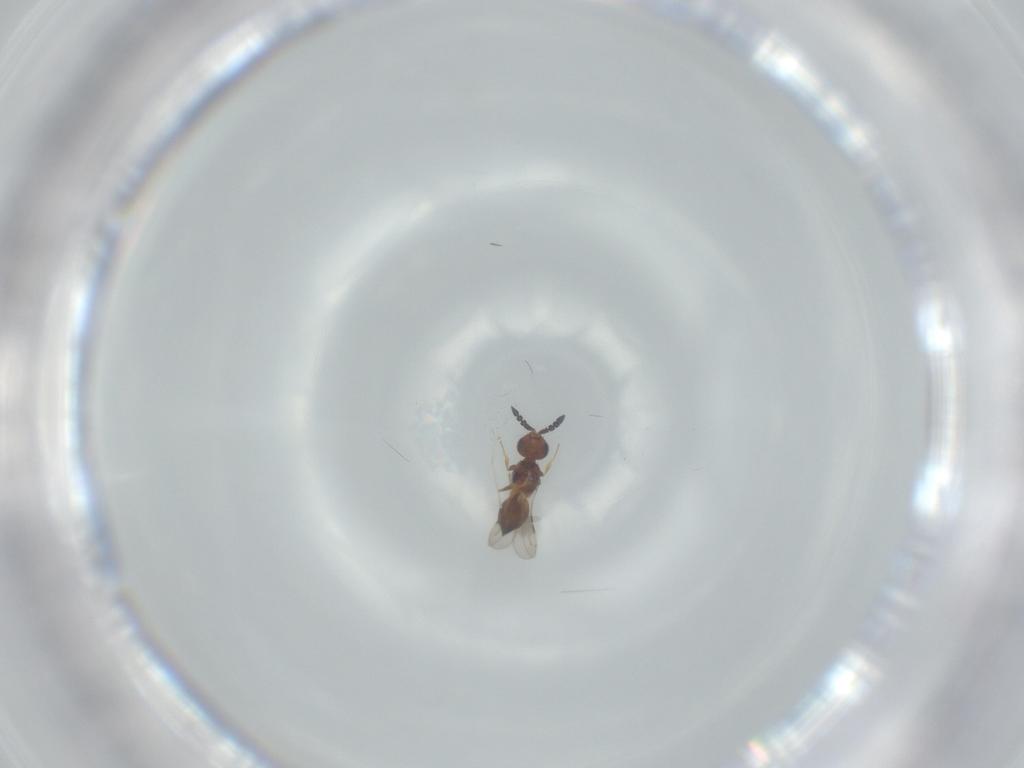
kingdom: Animalia
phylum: Arthropoda
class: Insecta
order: Hymenoptera
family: Ceraphronidae
